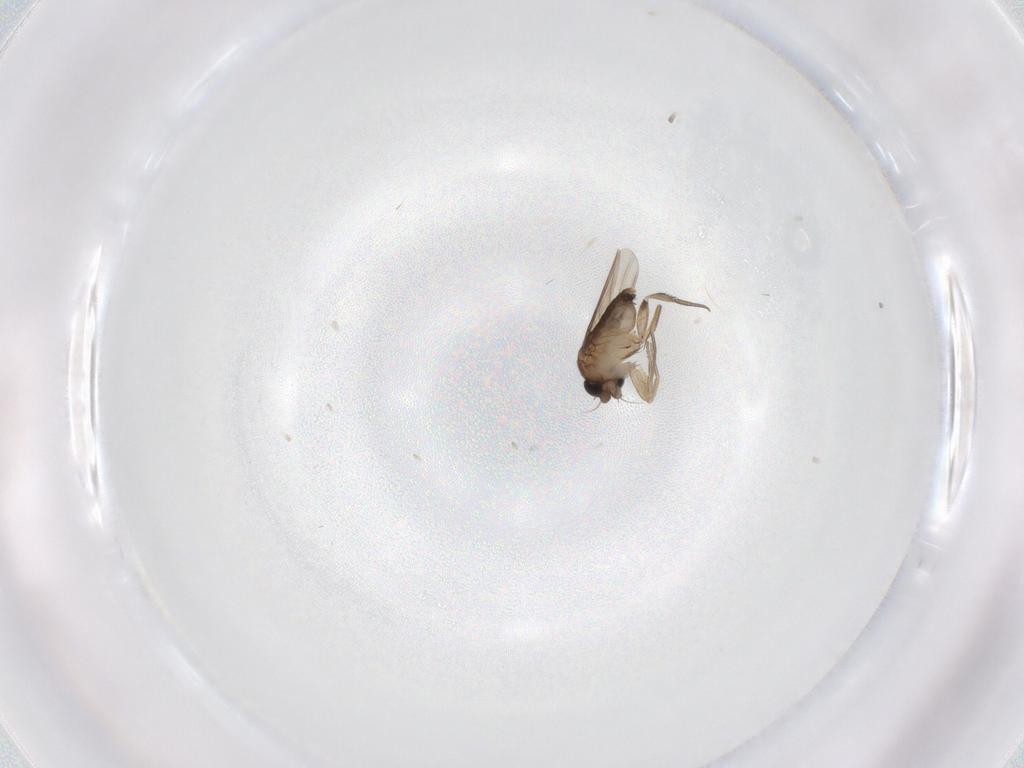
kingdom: Animalia
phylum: Arthropoda
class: Insecta
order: Diptera
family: Phoridae
